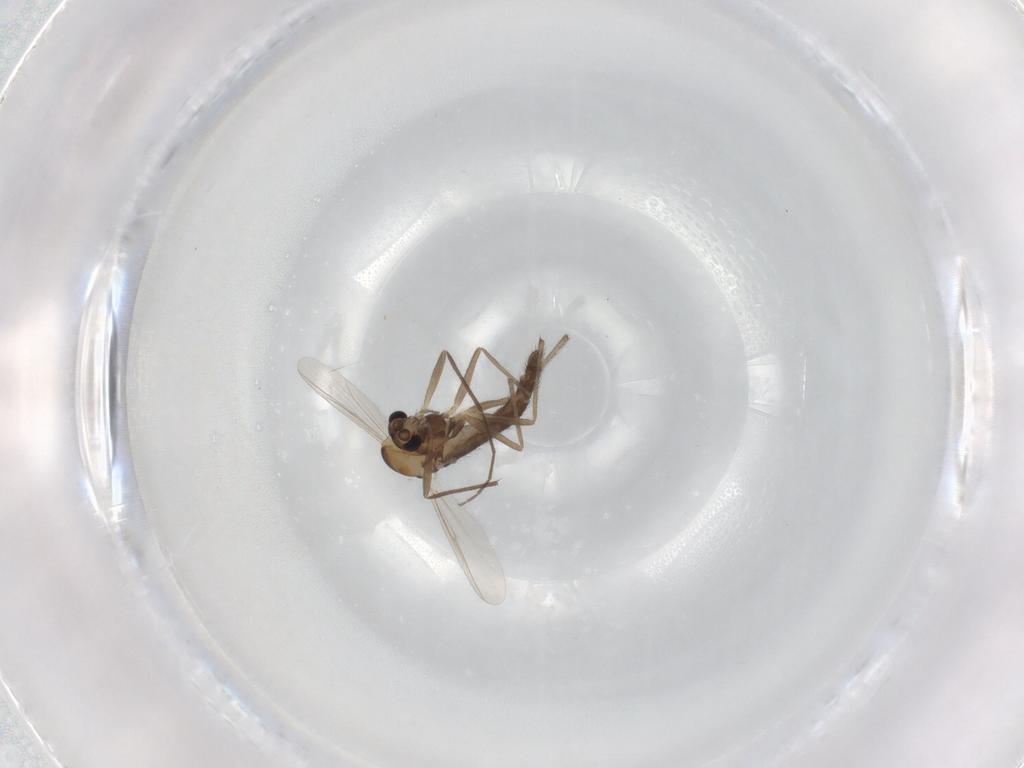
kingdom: Animalia
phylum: Arthropoda
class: Insecta
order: Diptera
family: Chironomidae
